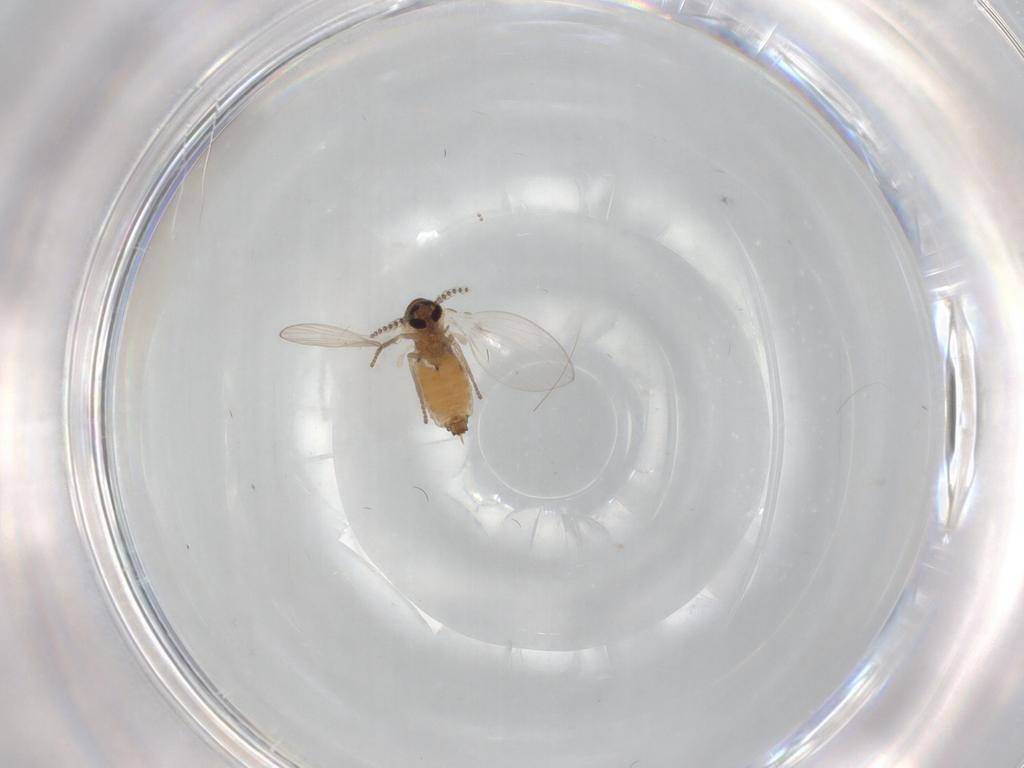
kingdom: Animalia
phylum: Arthropoda
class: Insecta
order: Diptera
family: Psychodidae
